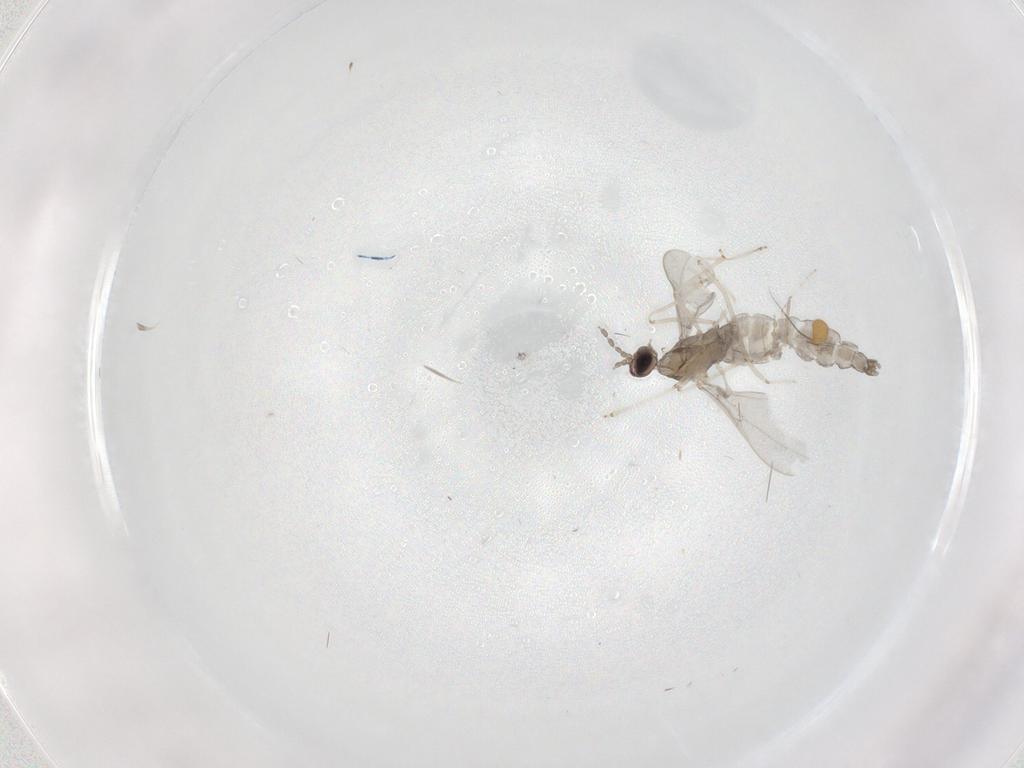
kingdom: Animalia
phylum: Arthropoda
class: Insecta
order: Diptera
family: Cecidomyiidae
